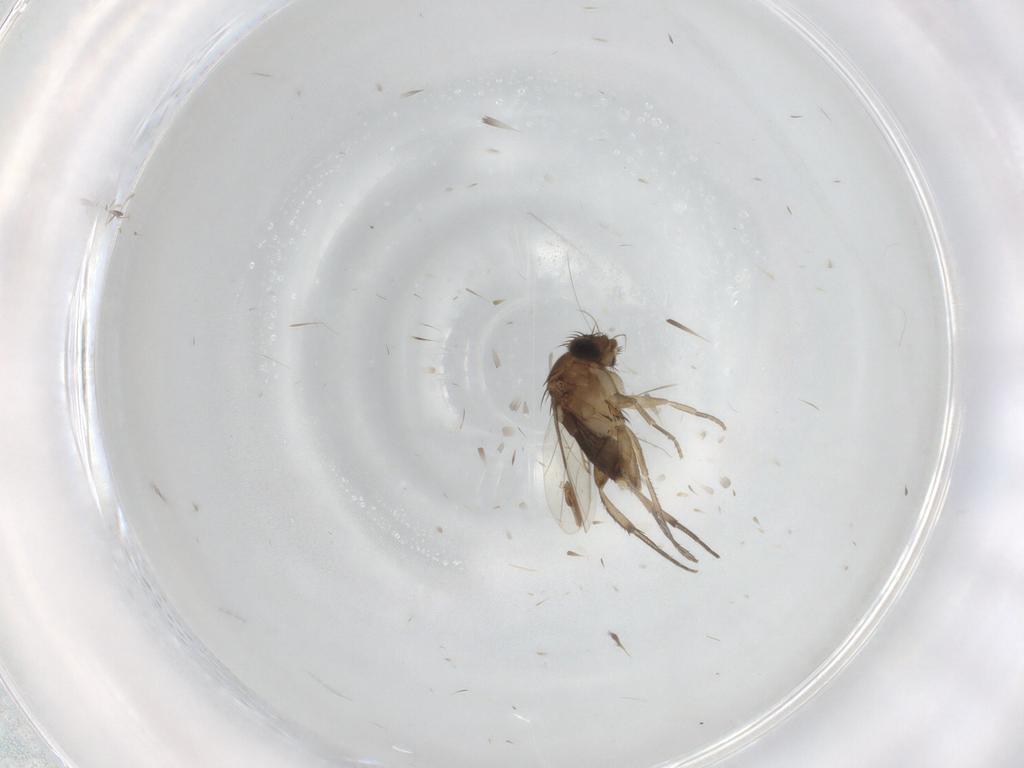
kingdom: Animalia
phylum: Arthropoda
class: Insecta
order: Diptera
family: Phoridae
